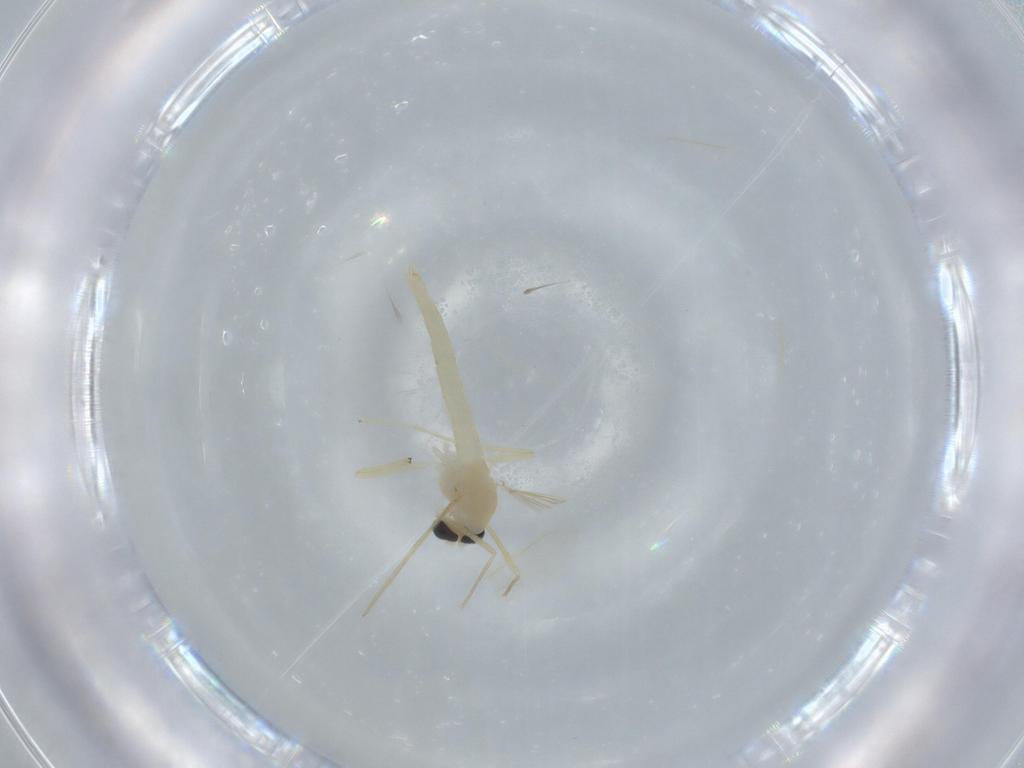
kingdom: Animalia
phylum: Arthropoda
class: Insecta
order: Diptera
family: Chironomidae
